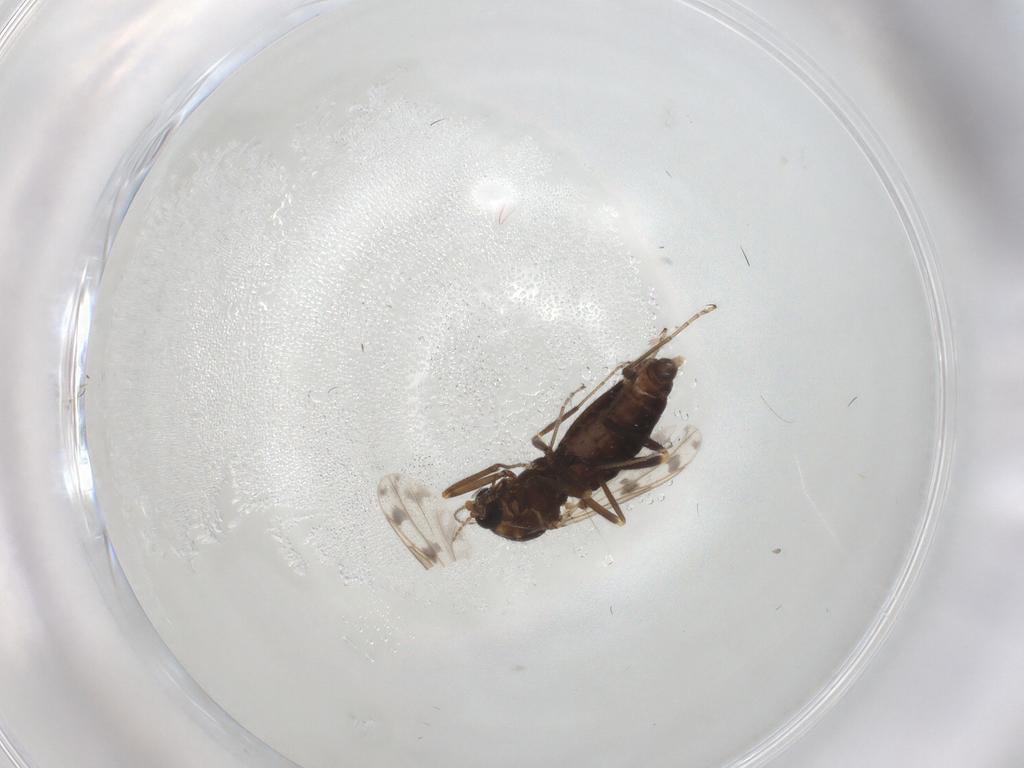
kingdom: Animalia
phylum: Arthropoda
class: Insecta
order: Diptera
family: Ceratopogonidae
